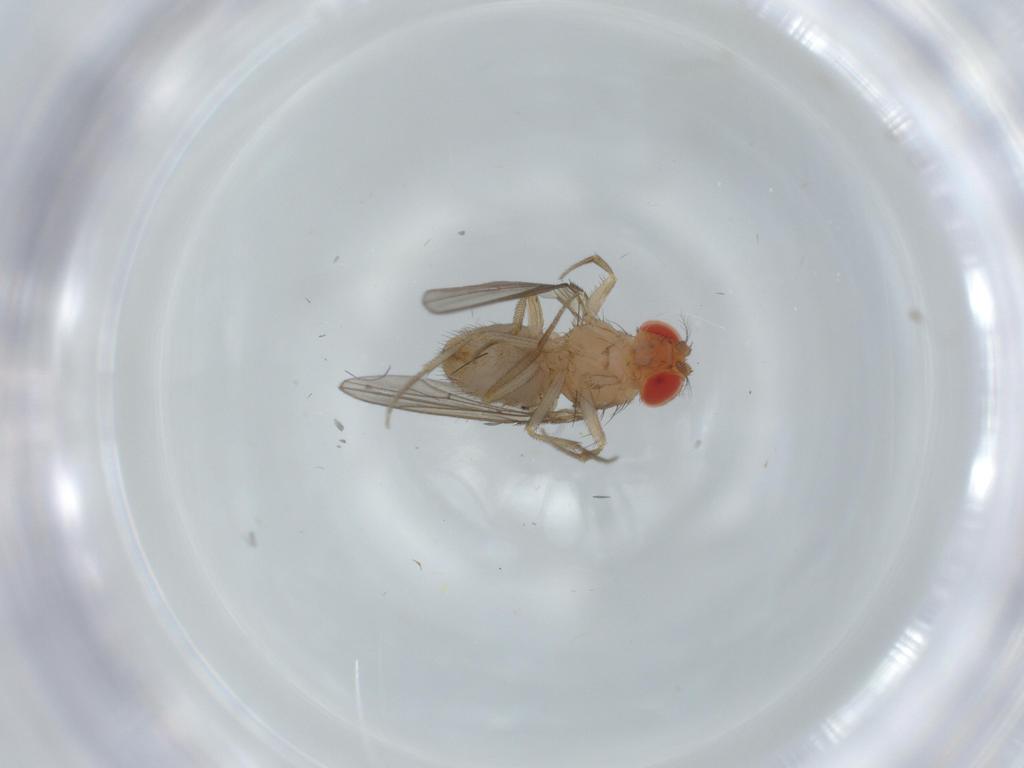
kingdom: Animalia
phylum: Arthropoda
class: Insecta
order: Diptera
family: Drosophilidae
